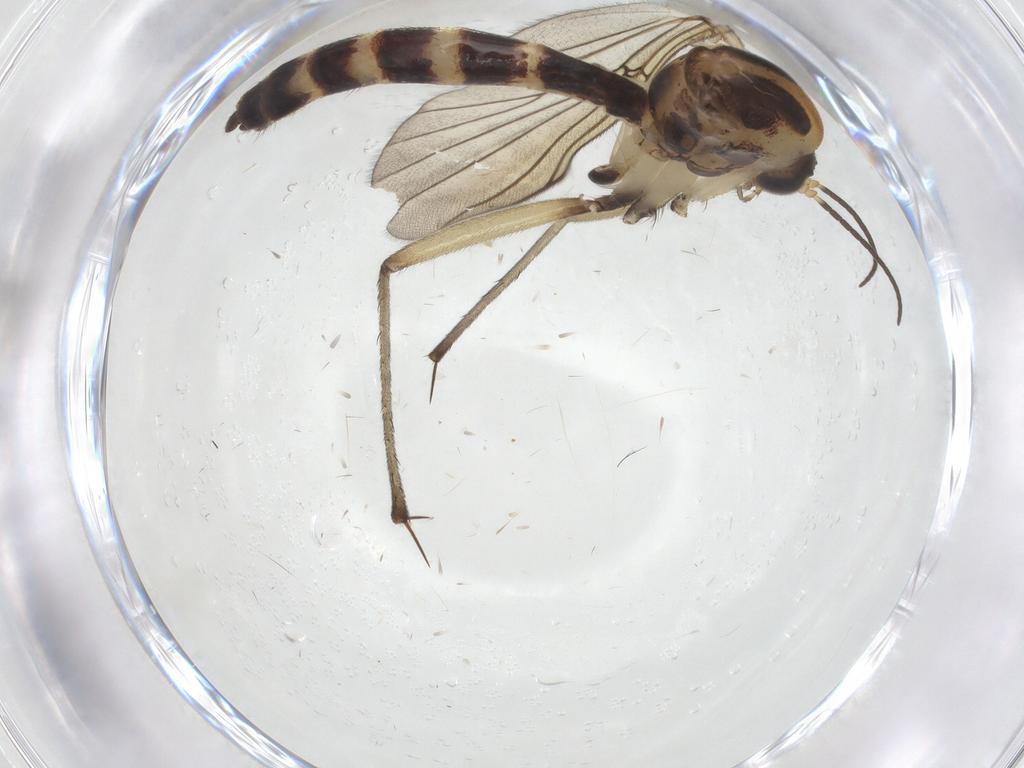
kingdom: Animalia
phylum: Arthropoda
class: Insecta
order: Diptera
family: Mycetophilidae
